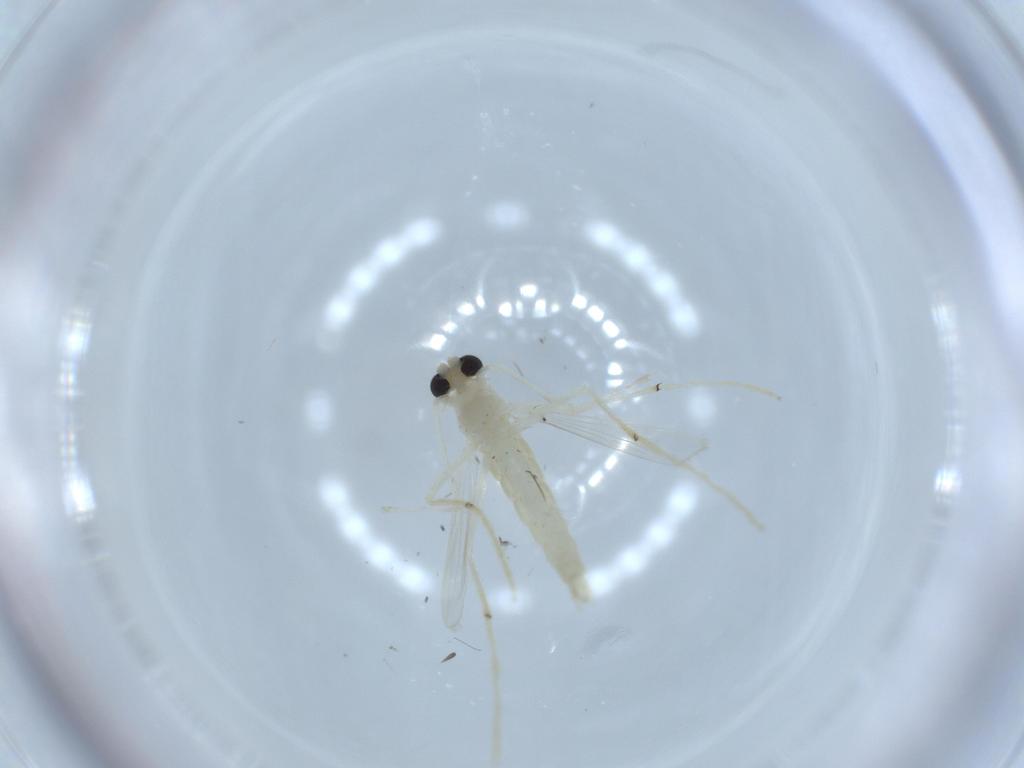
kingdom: Animalia
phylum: Arthropoda
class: Insecta
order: Diptera
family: Chironomidae
